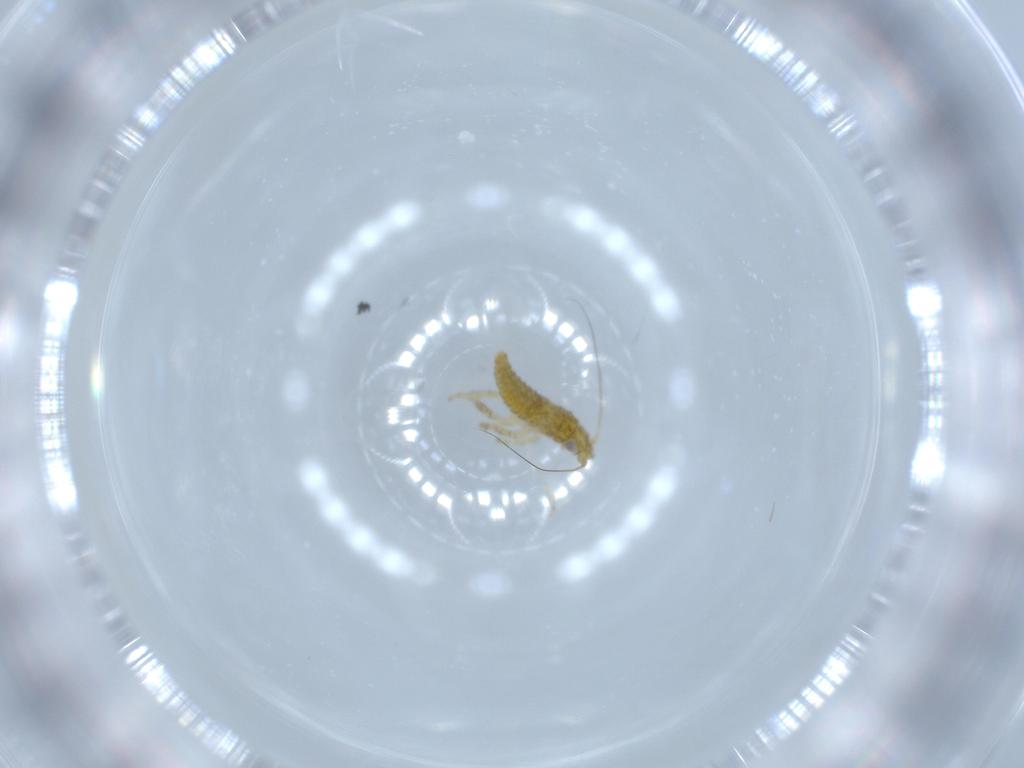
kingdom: Animalia
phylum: Arthropoda
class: Insecta
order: Hemiptera
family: Cicadellidae
